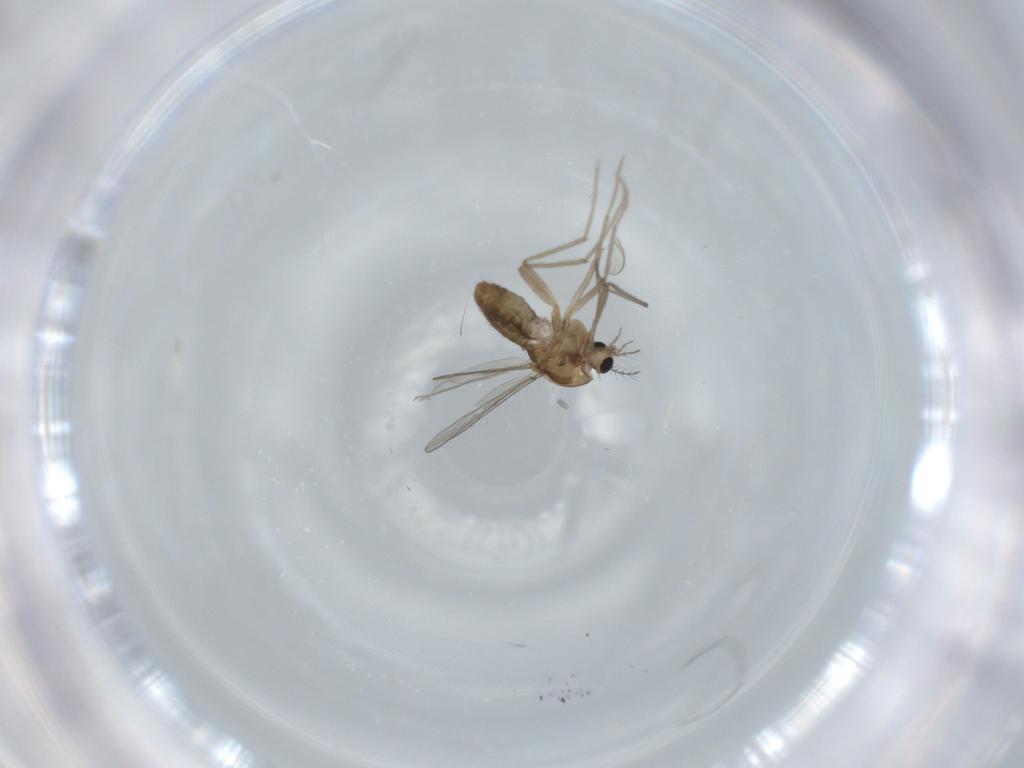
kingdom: Animalia
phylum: Arthropoda
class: Insecta
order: Diptera
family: Chironomidae
